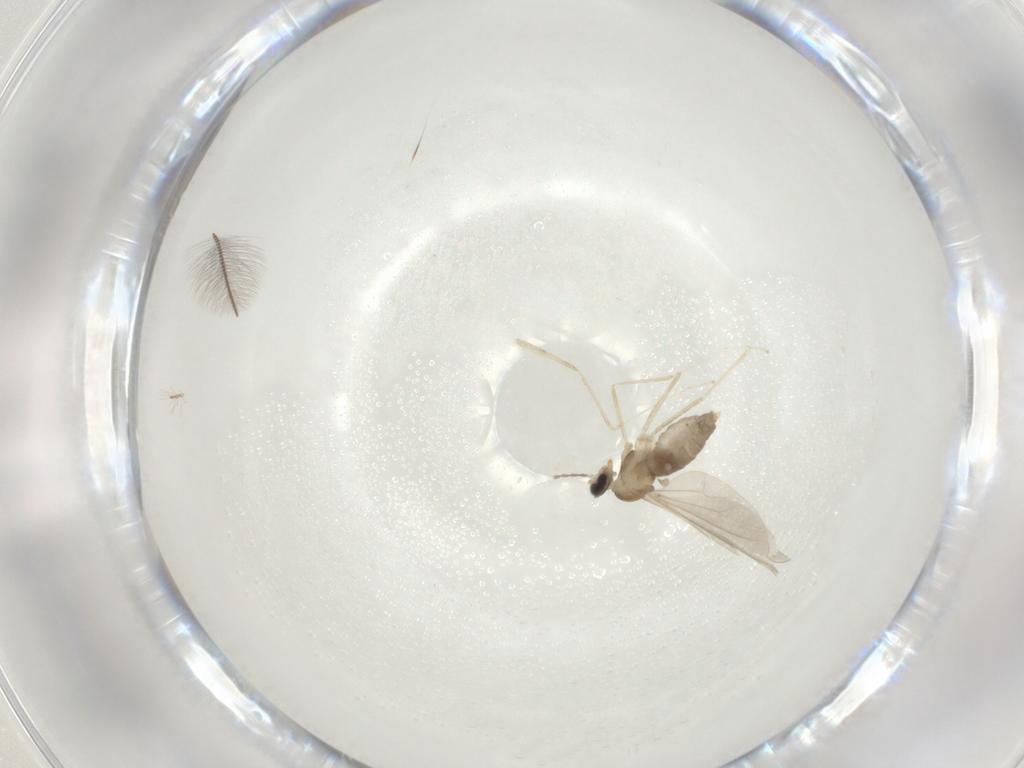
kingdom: Animalia
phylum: Arthropoda
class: Insecta
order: Diptera
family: Cecidomyiidae
